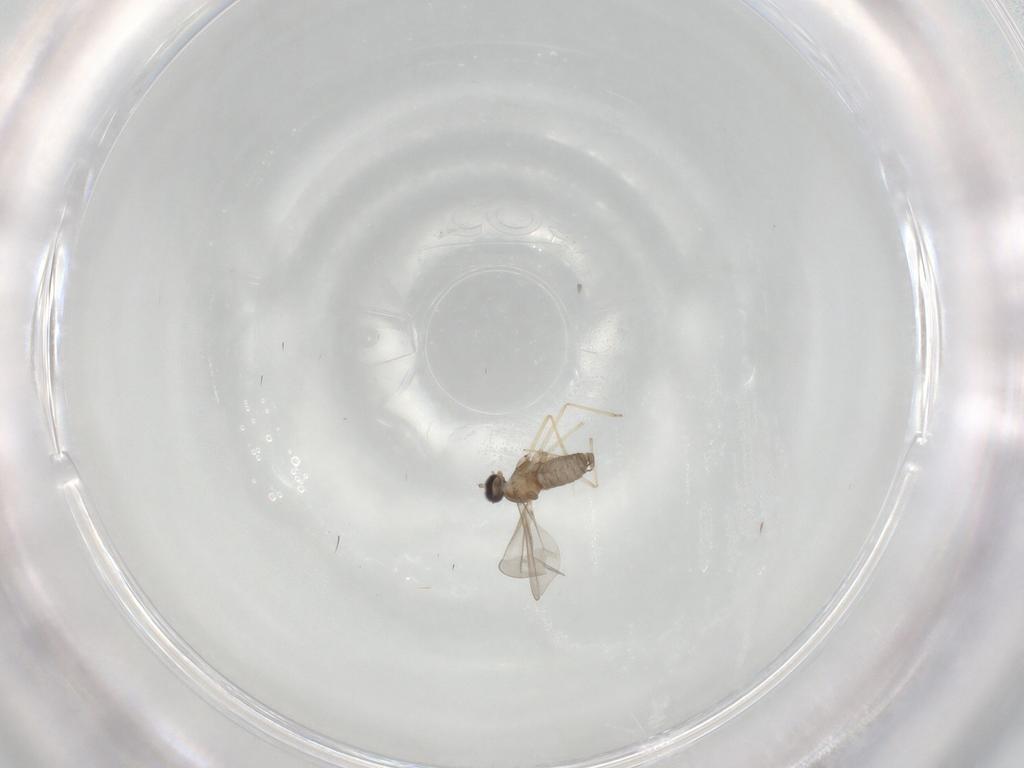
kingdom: Animalia
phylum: Arthropoda
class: Insecta
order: Diptera
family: Cecidomyiidae
